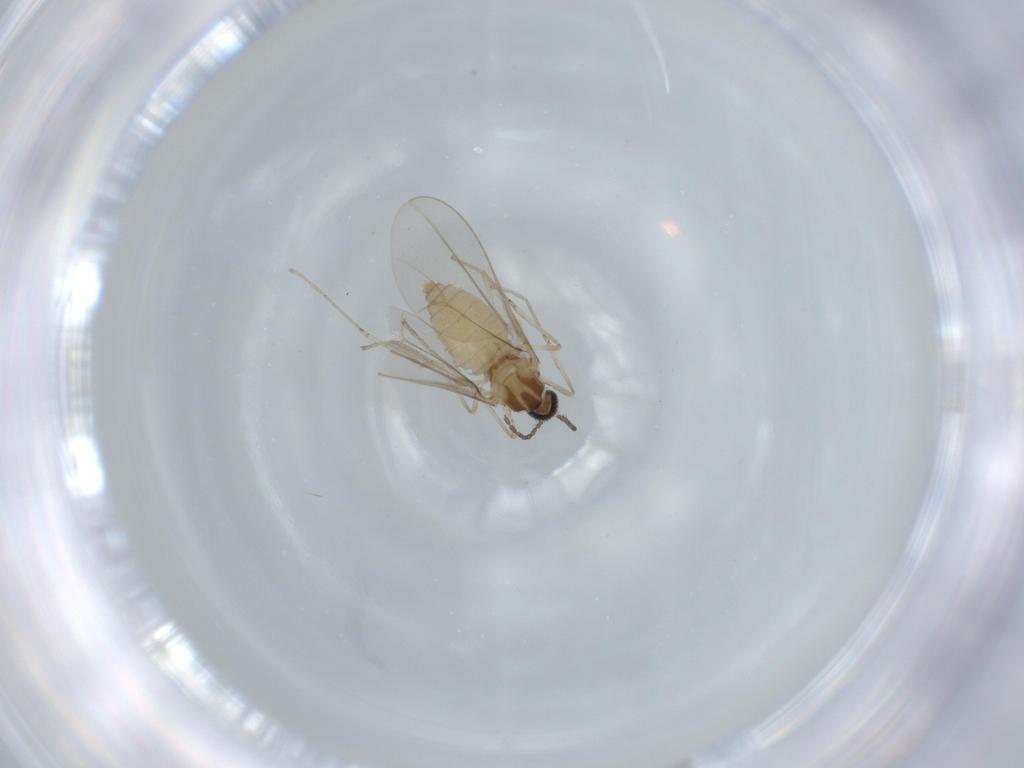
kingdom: Animalia
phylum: Arthropoda
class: Insecta
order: Diptera
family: Cecidomyiidae
